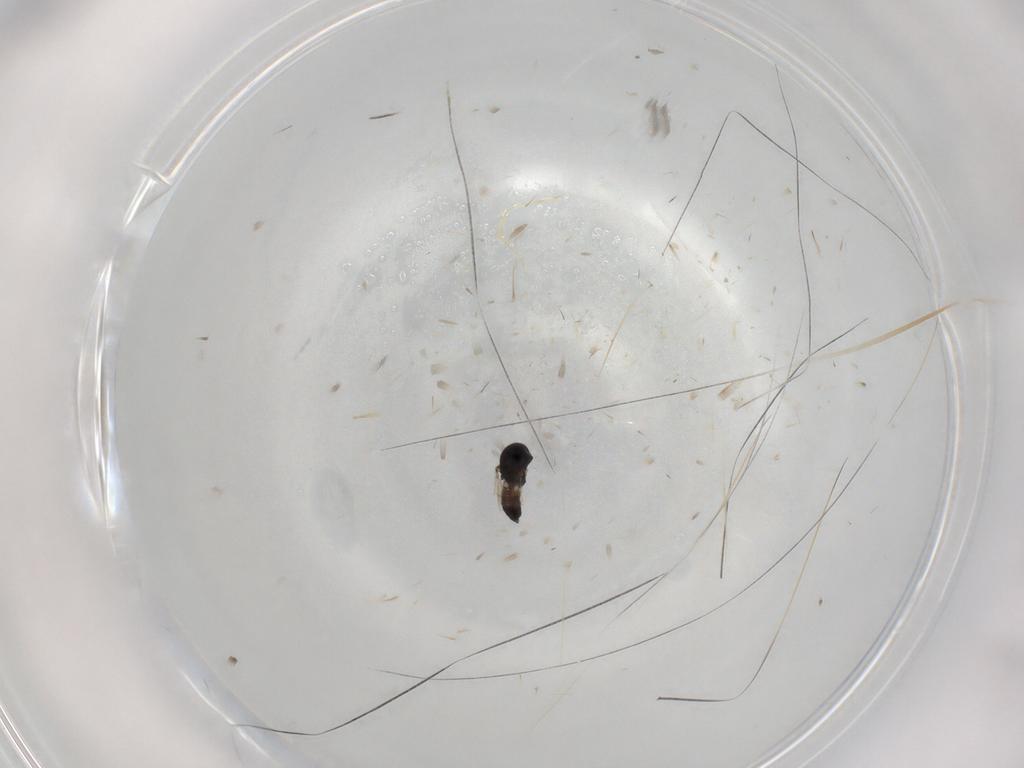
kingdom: Animalia
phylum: Arthropoda
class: Insecta
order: Diptera
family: Ceratopogonidae
